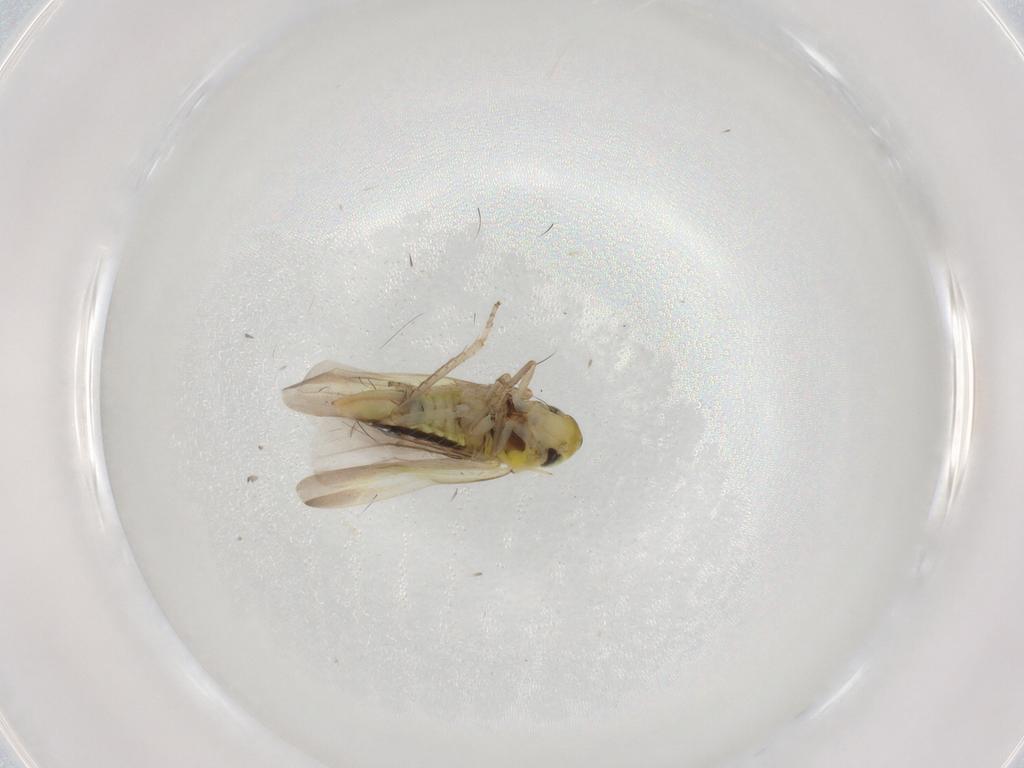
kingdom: Animalia
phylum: Arthropoda
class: Insecta
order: Hemiptera
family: Cicadellidae
